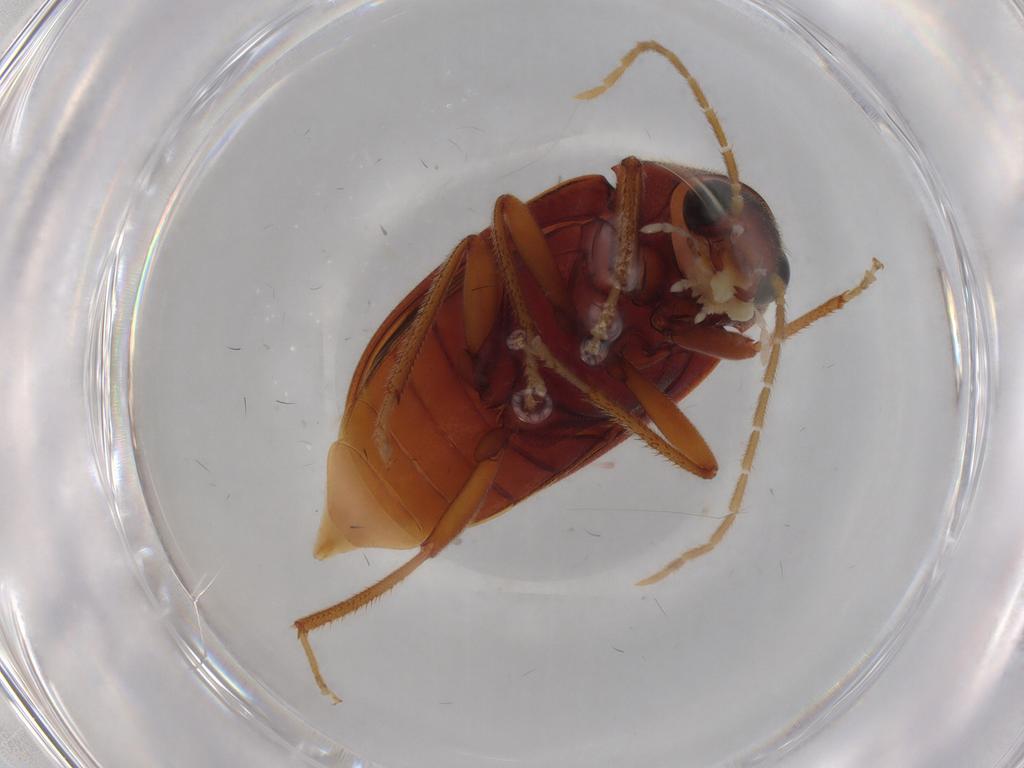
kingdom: Animalia
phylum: Arthropoda
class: Insecta
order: Coleoptera
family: Ptilodactylidae
